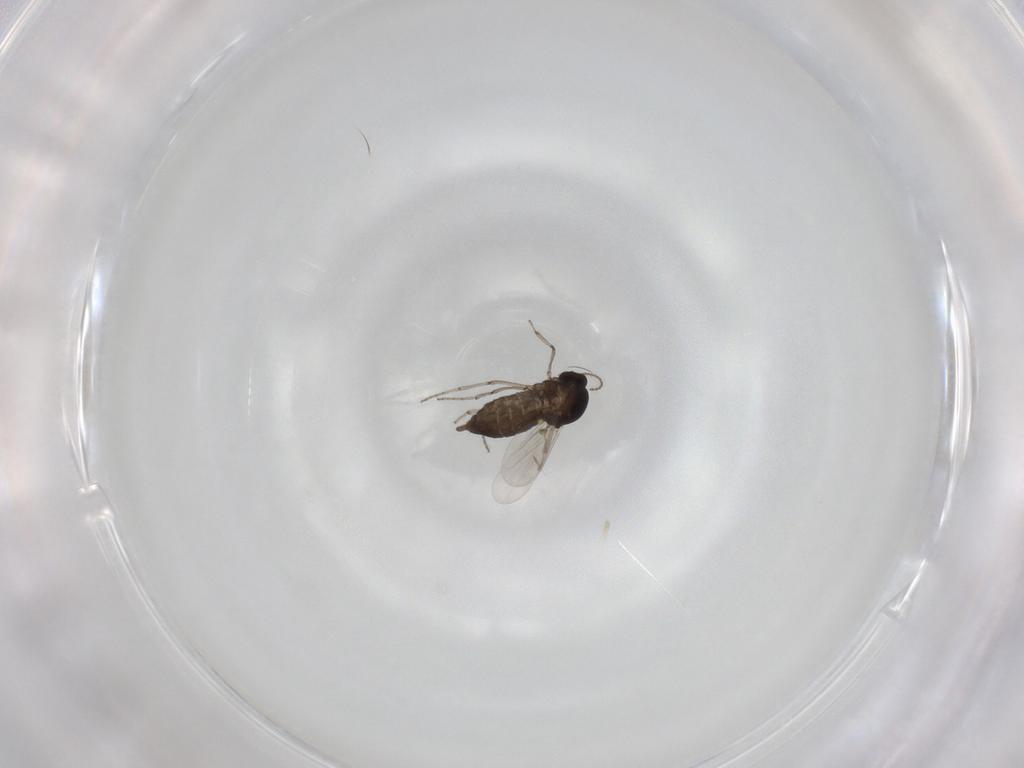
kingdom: Animalia
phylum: Arthropoda
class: Insecta
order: Diptera
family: Ceratopogonidae
